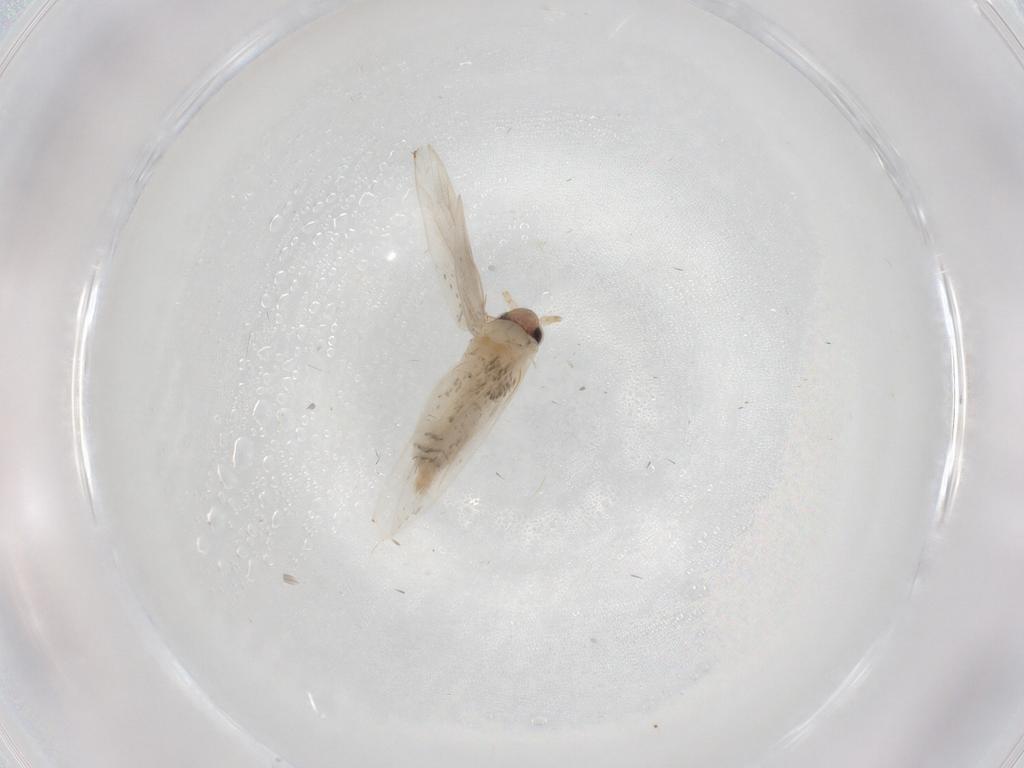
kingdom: Animalia
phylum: Arthropoda
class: Insecta
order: Lepidoptera
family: Tineidae
